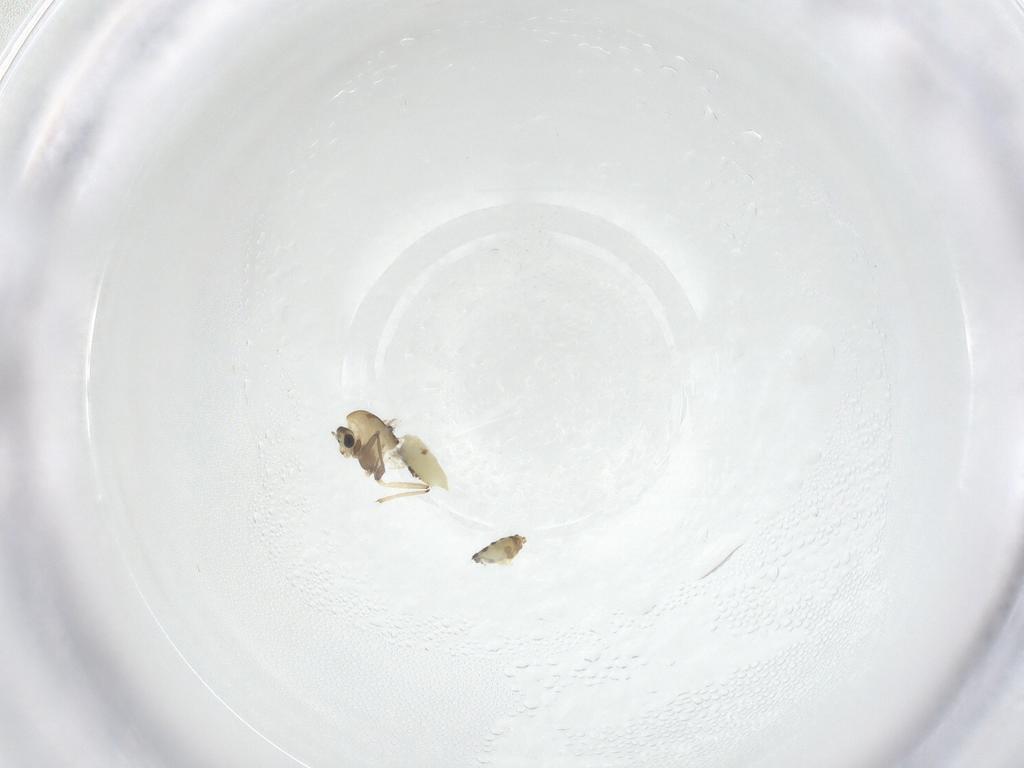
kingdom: Animalia
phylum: Arthropoda
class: Insecta
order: Diptera
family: Chironomidae
